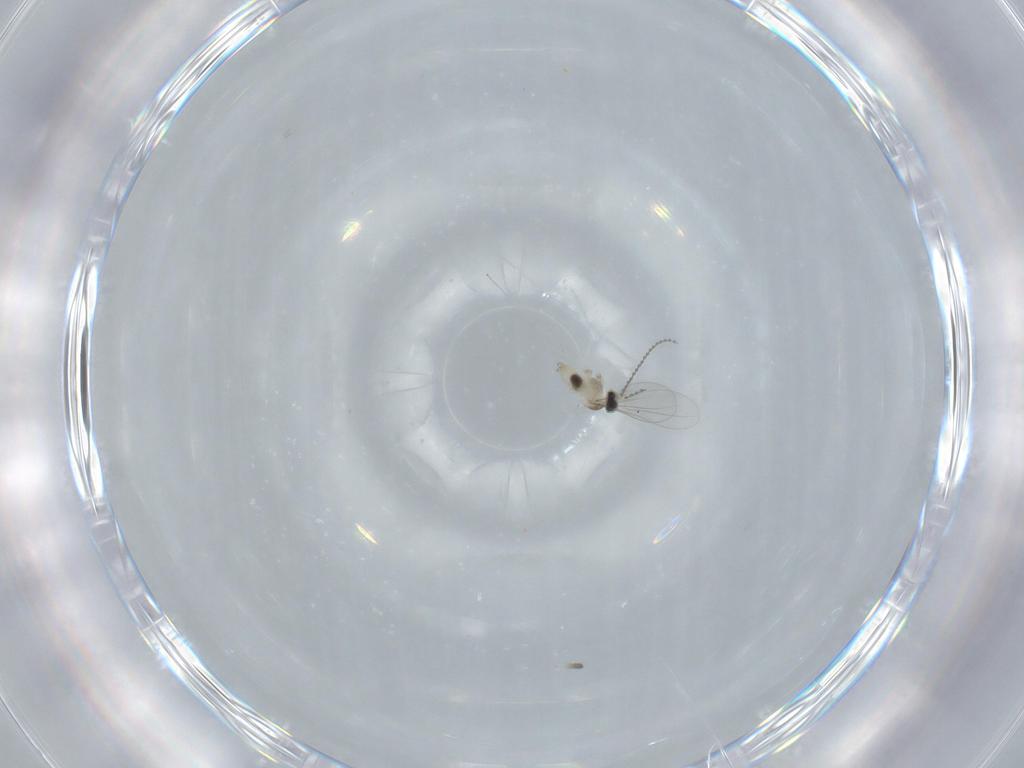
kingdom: Animalia
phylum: Arthropoda
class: Insecta
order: Diptera
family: Cecidomyiidae
